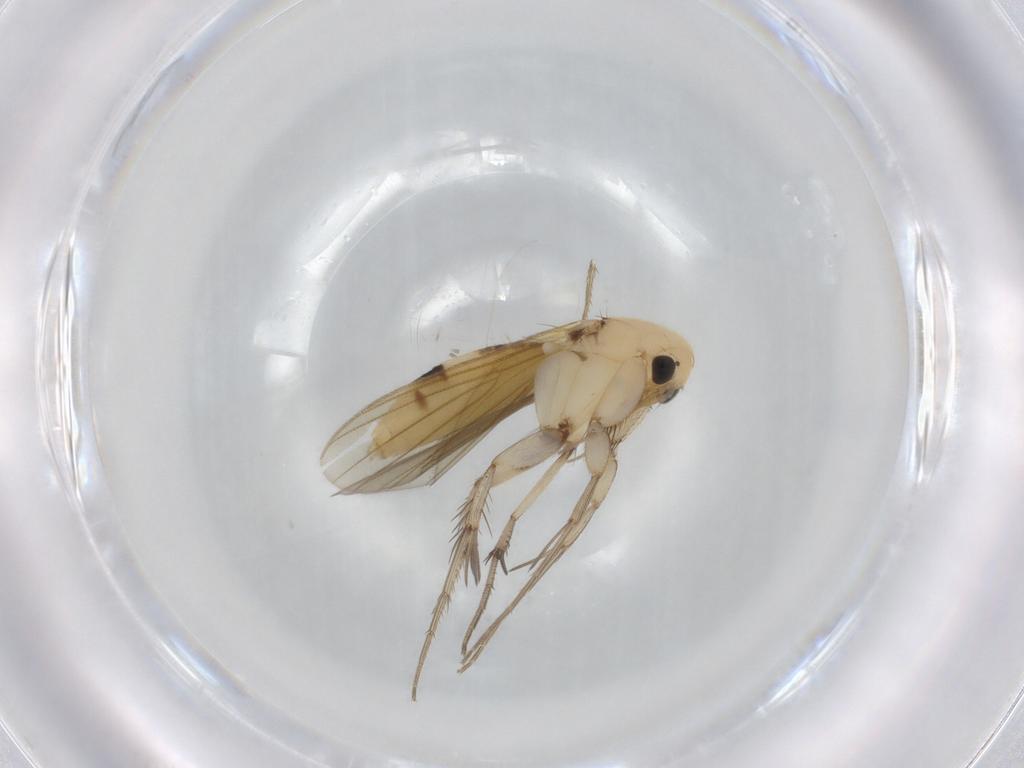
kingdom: Animalia
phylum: Arthropoda
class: Insecta
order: Diptera
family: Mycetophilidae
